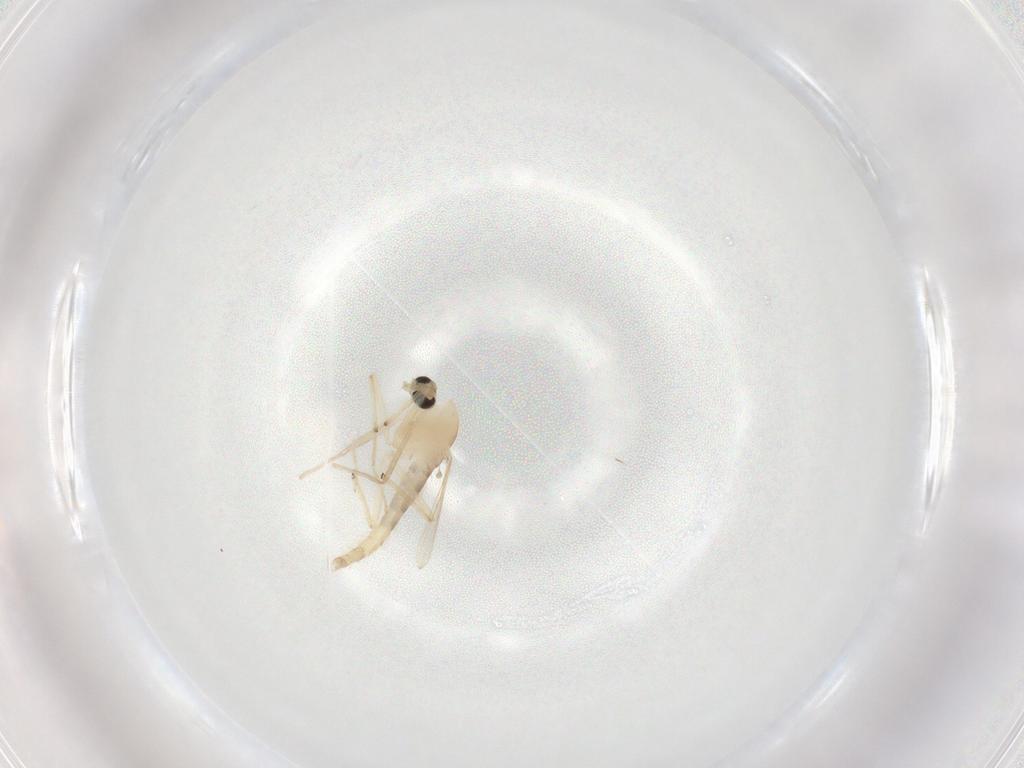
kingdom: Animalia
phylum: Arthropoda
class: Insecta
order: Diptera
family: Chironomidae
